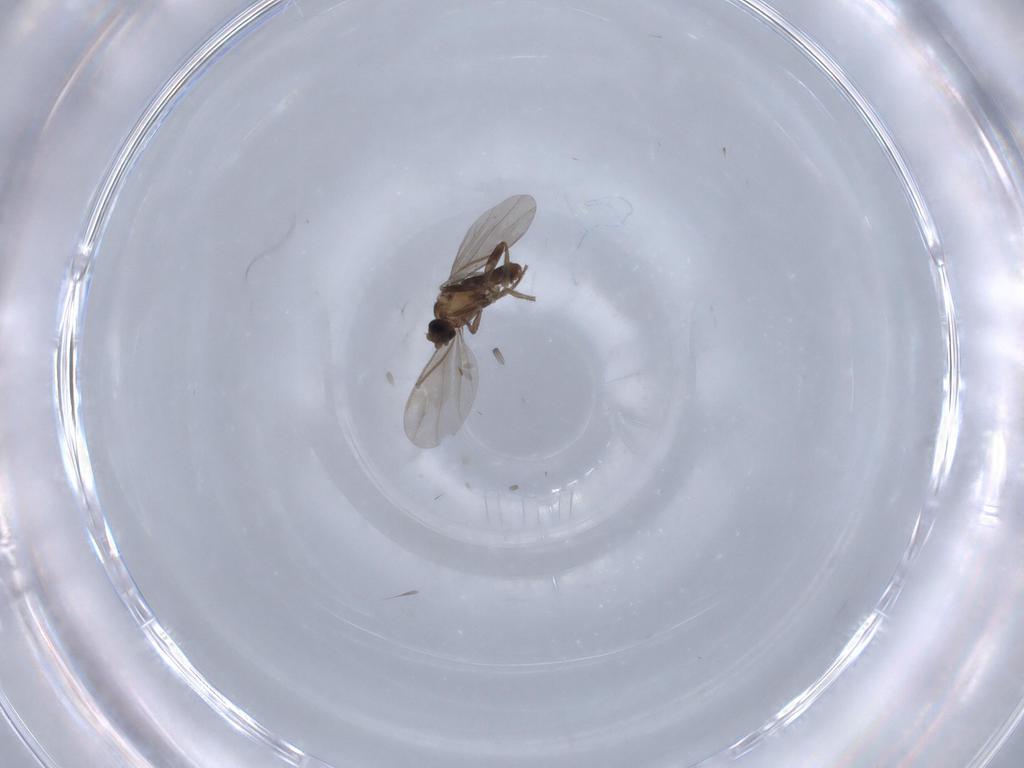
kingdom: Animalia
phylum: Arthropoda
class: Insecta
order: Diptera
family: Phoridae
